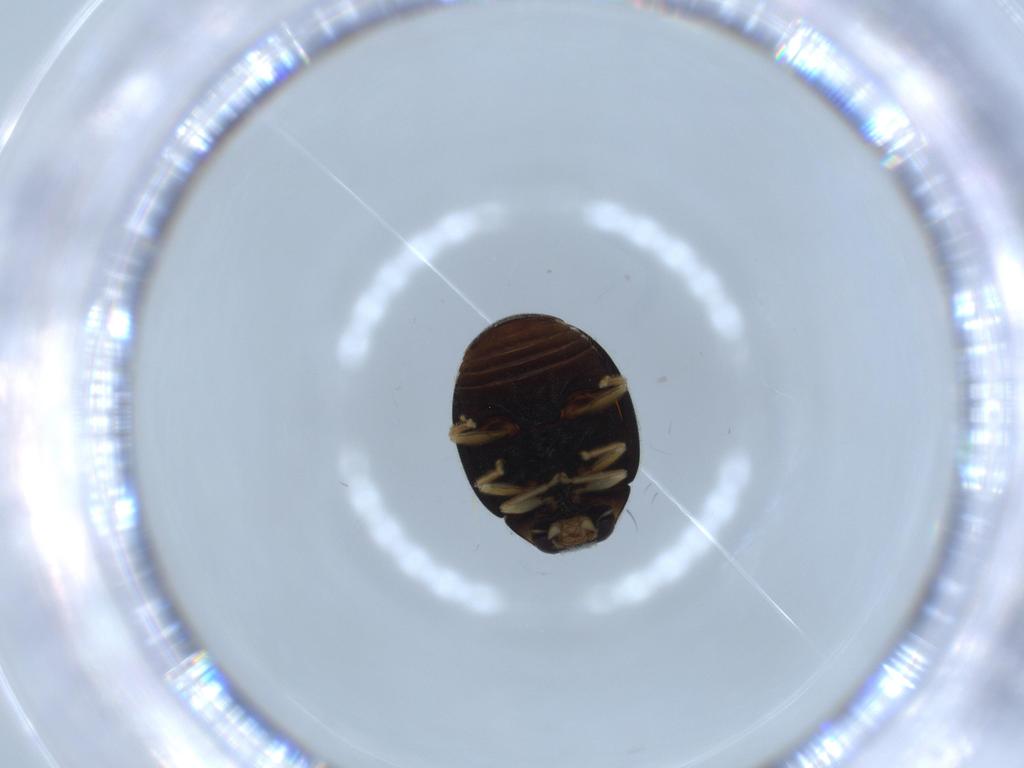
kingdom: Animalia
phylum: Arthropoda
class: Insecta
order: Coleoptera
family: Coccinellidae
